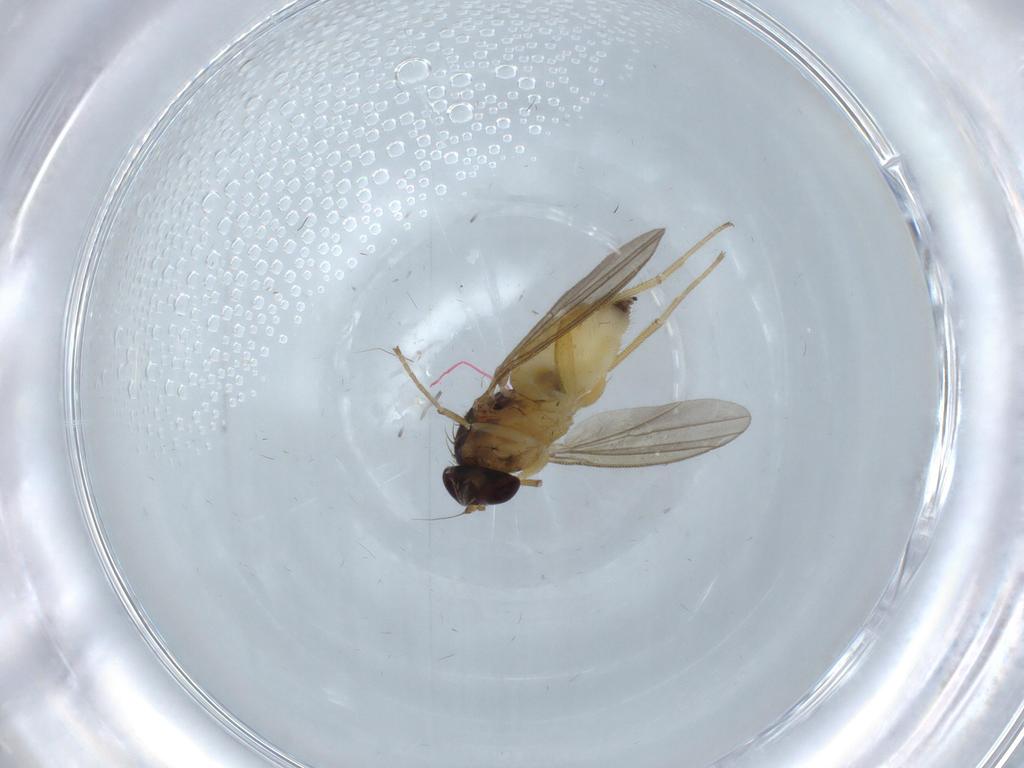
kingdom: Animalia
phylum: Arthropoda
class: Insecta
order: Diptera
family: Dolichopodidae
